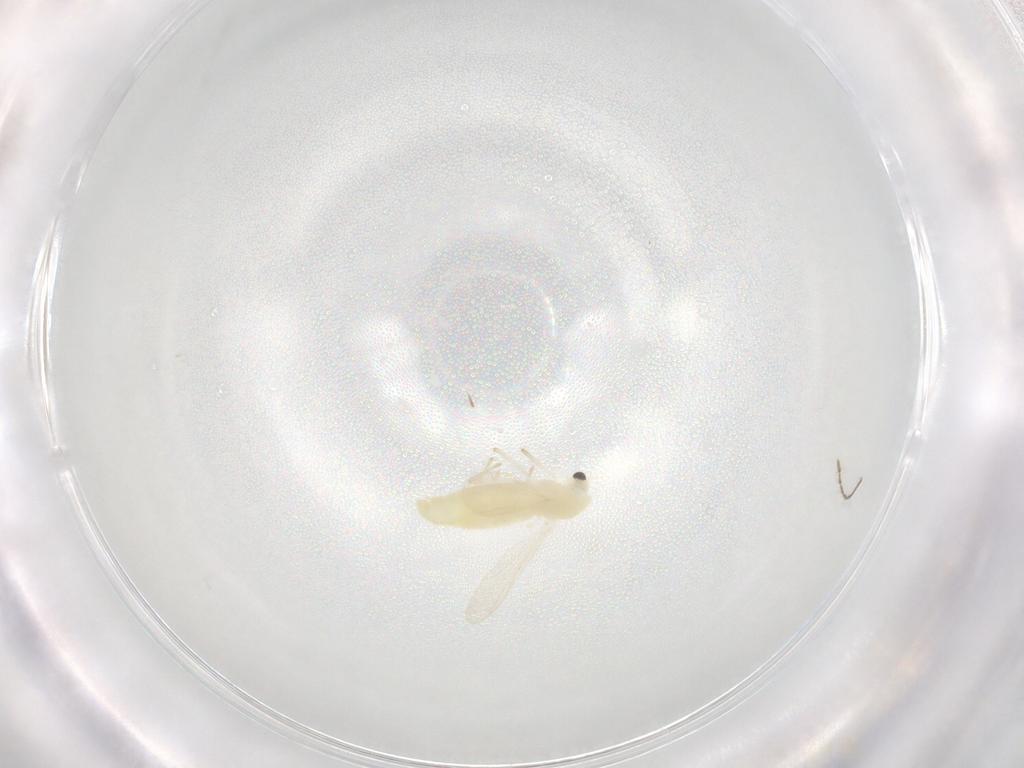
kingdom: Animalia
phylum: Arthropoda
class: Insecta
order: Diptera
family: Chironomidae
